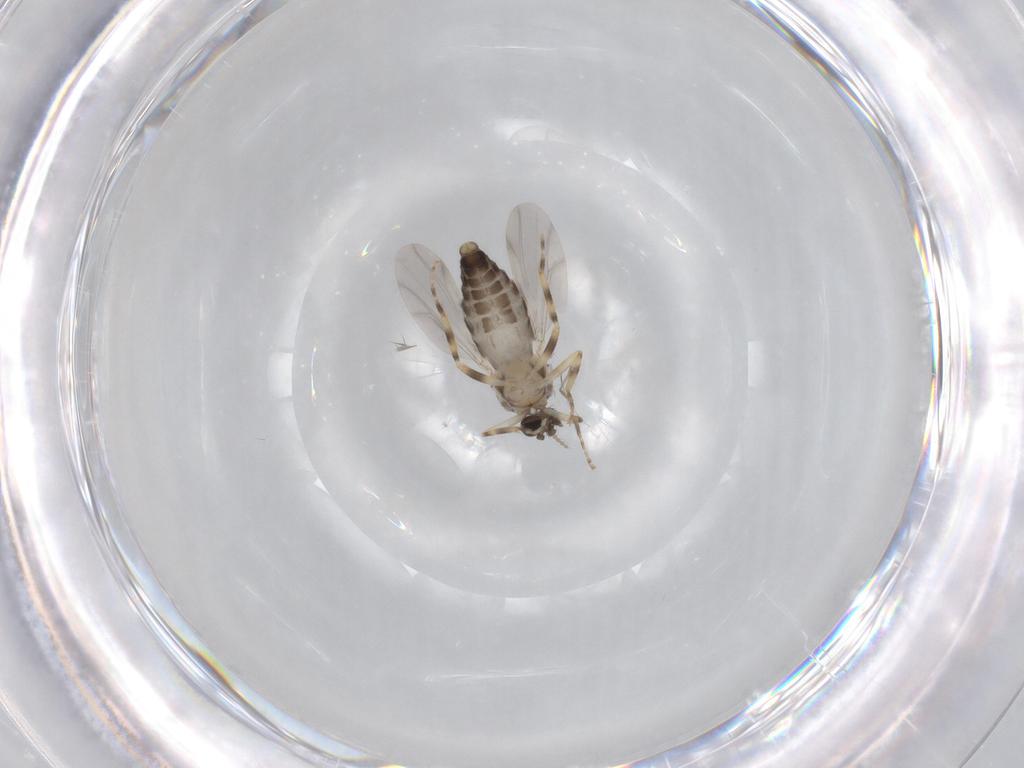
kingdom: Animalia
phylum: Arthropoda
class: Insecta
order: Diptera
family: Ceratopogonidae
